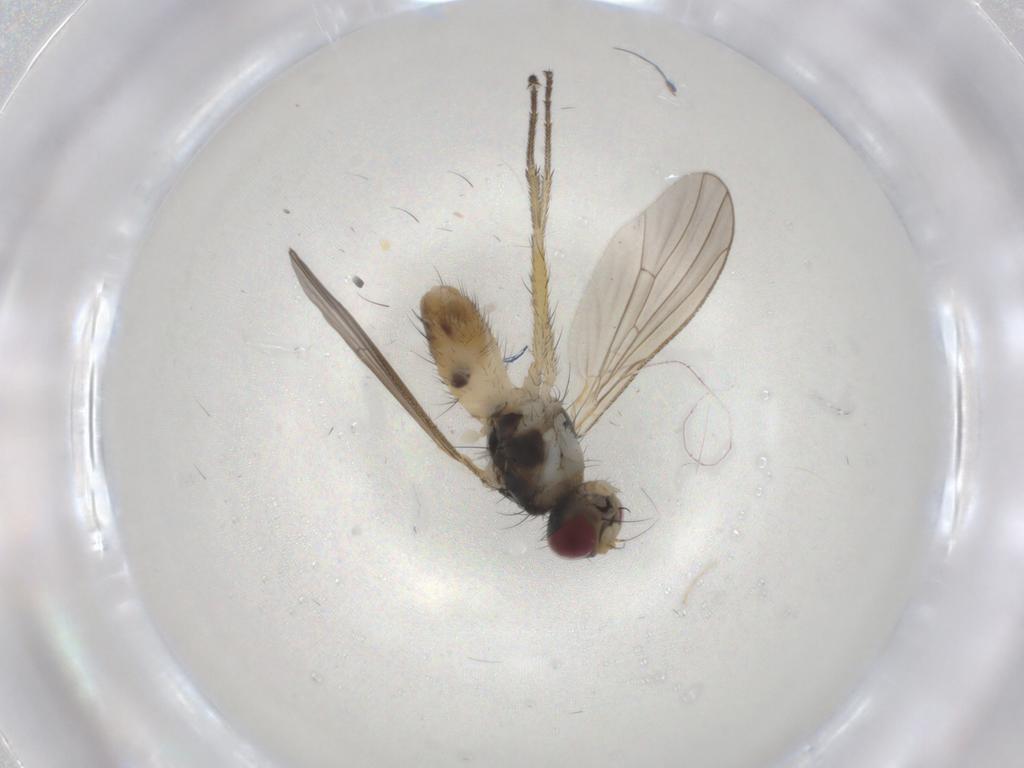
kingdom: Animalia
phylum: Arthropoda
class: Insecta
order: Diptera
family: Muscidae
